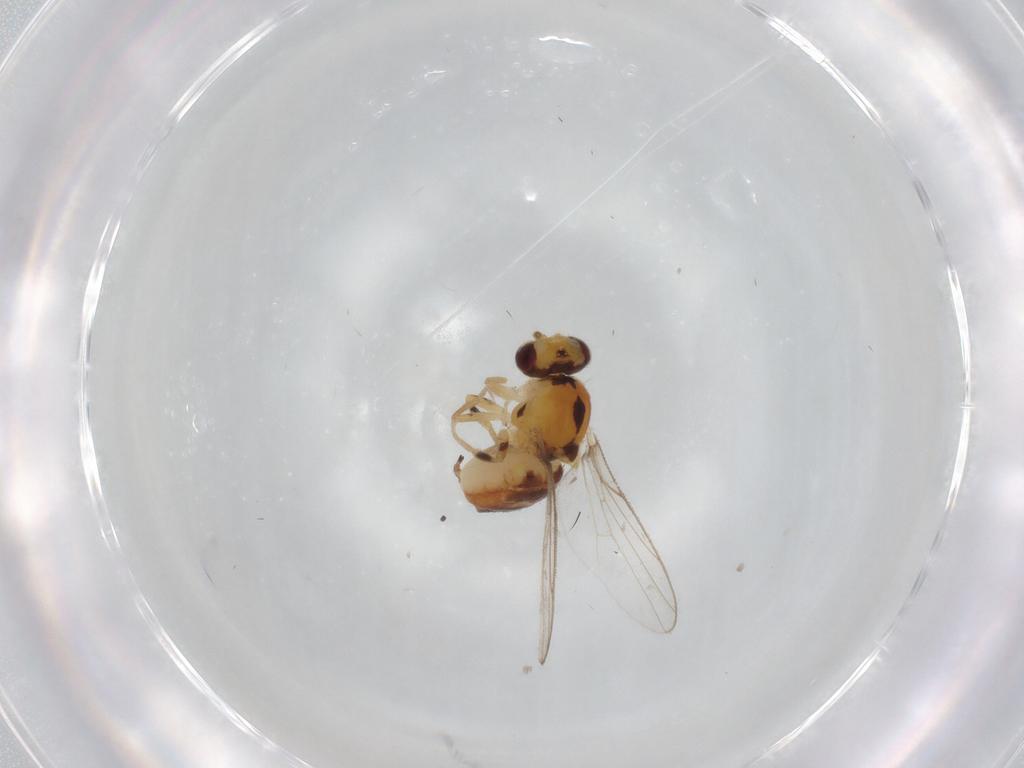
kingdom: Animalia
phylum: Arthropoda
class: Insecta
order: Diptera
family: Chloropidae
